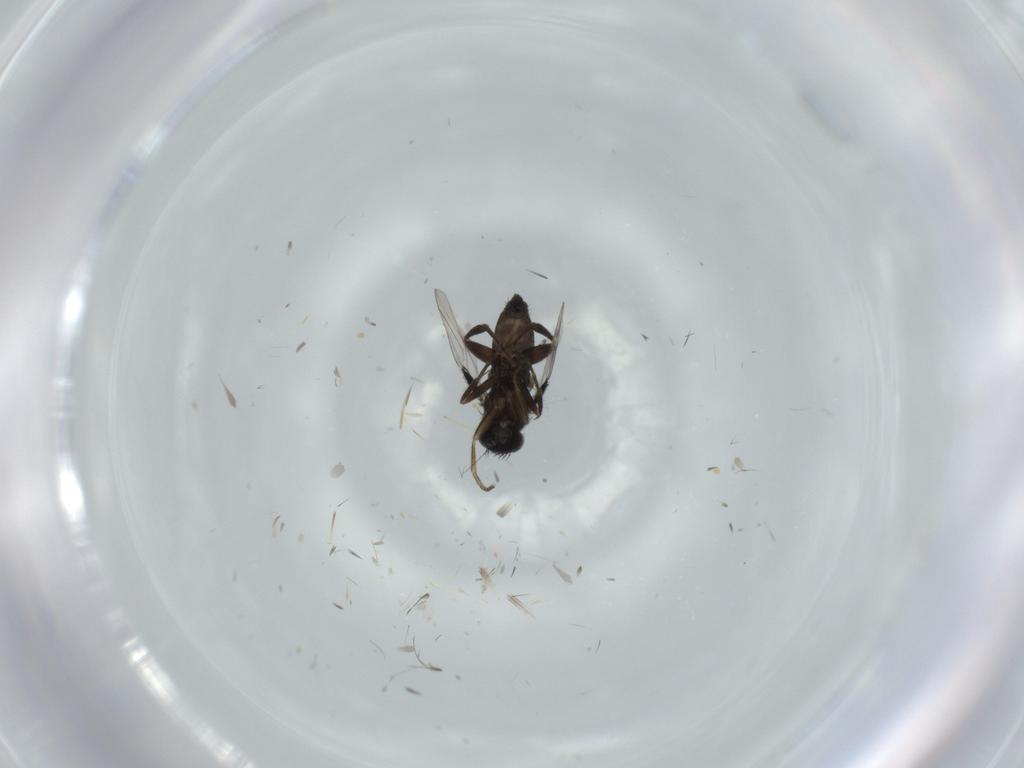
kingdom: Animalia
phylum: Arthropoda
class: Insecta
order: Diptera
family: Phoridae
